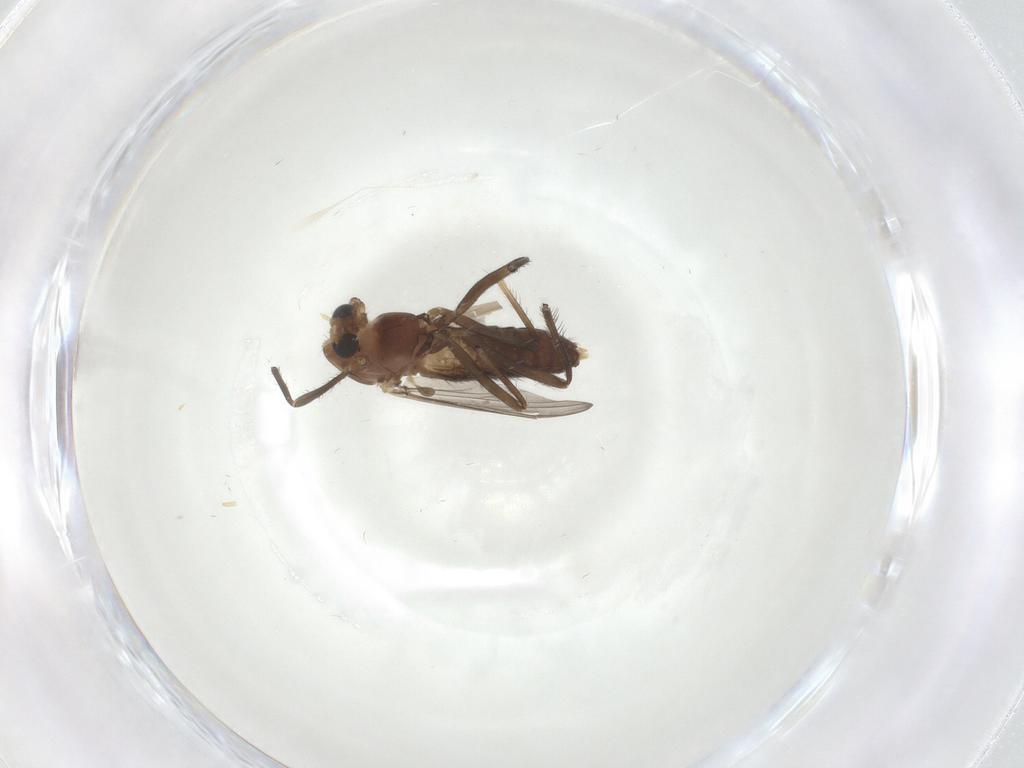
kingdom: Animalia
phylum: Arthropoda
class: Insecta
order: Diptera
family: Chironomidae
